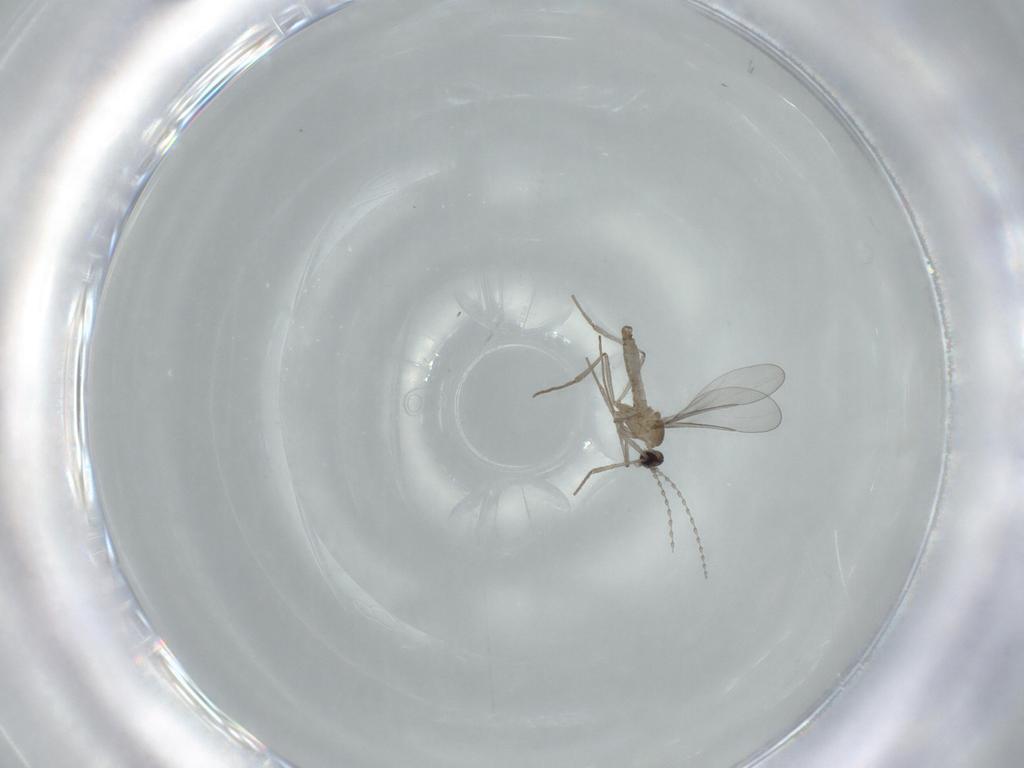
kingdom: Animalia
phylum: Arthropoda
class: Insecta
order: Diptera
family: Cecidomyiidae
